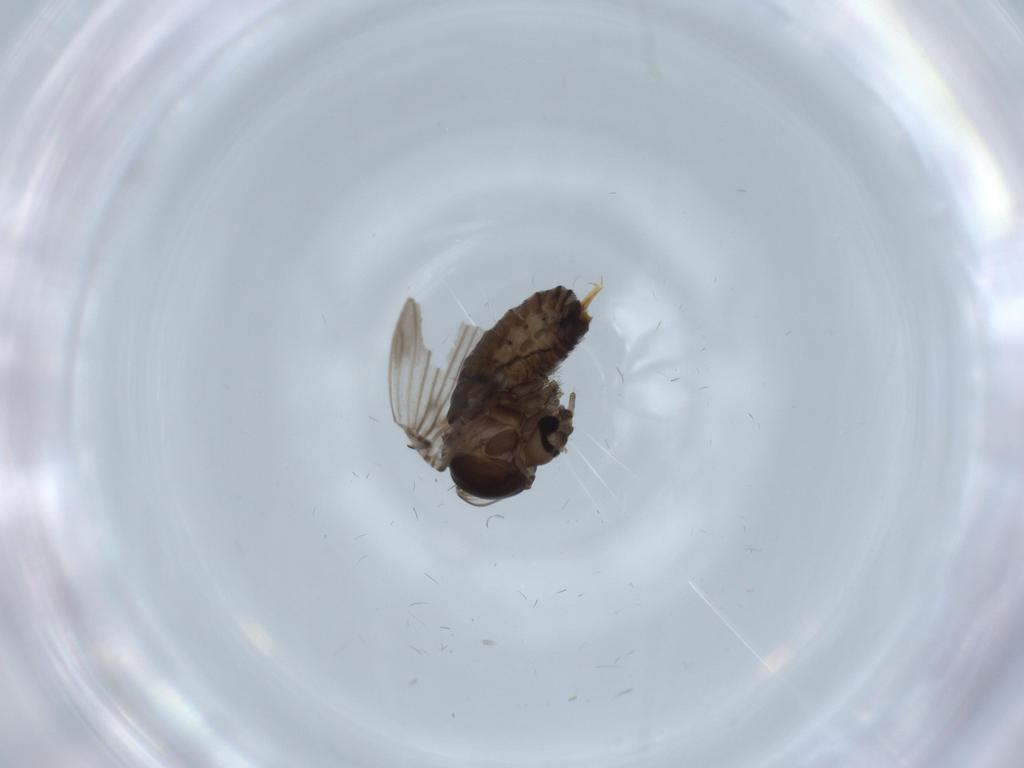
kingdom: Animalia
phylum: Arthropoda
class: Insecta
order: Diptera
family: Psychodidae
